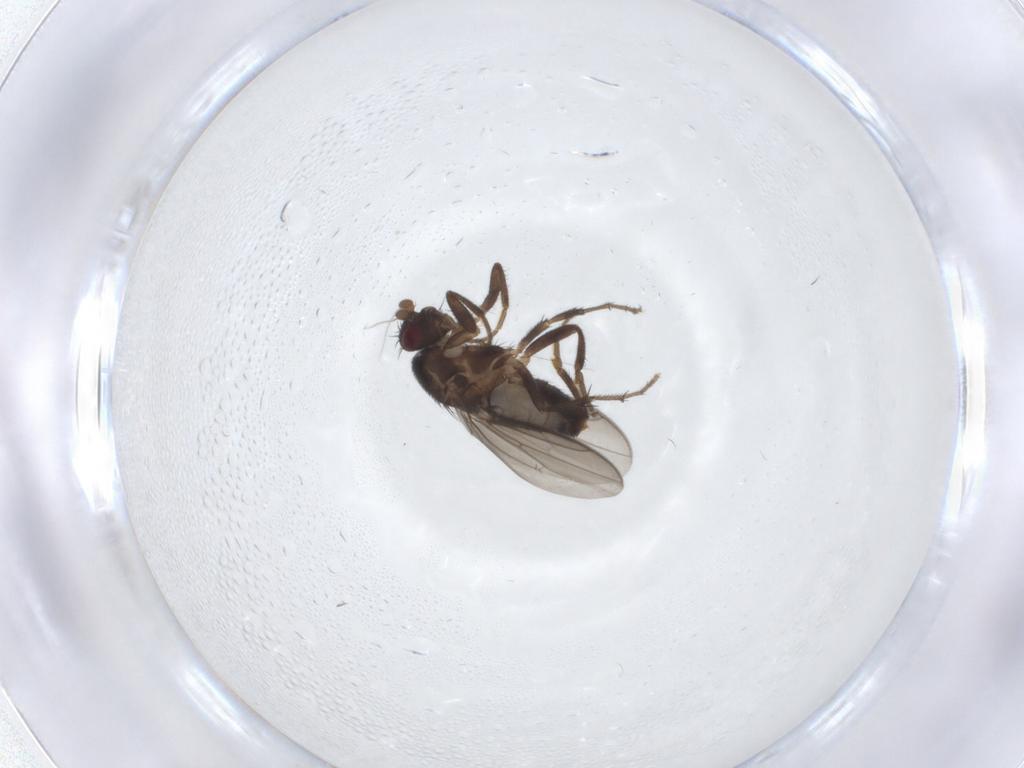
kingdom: Animalia
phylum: Arthropoda
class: Insecta
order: Diptera
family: Sphaeroceridae
